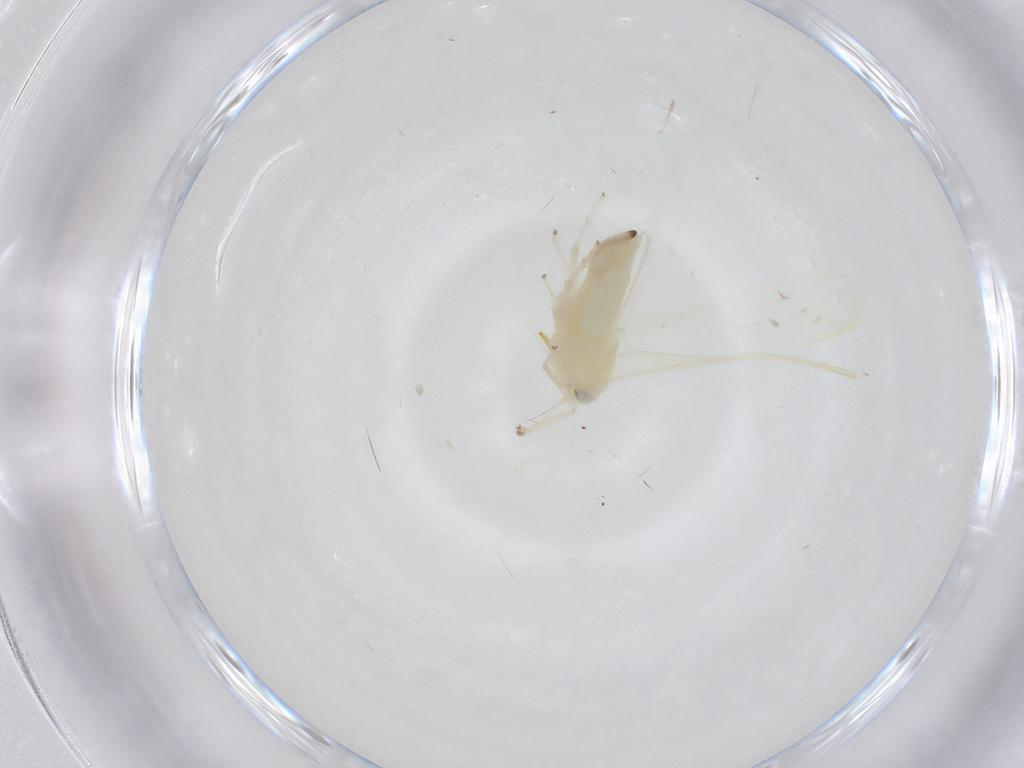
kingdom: Animalia
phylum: Arthropoda
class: Insecta
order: Hemiptera
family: Cicadellidae
